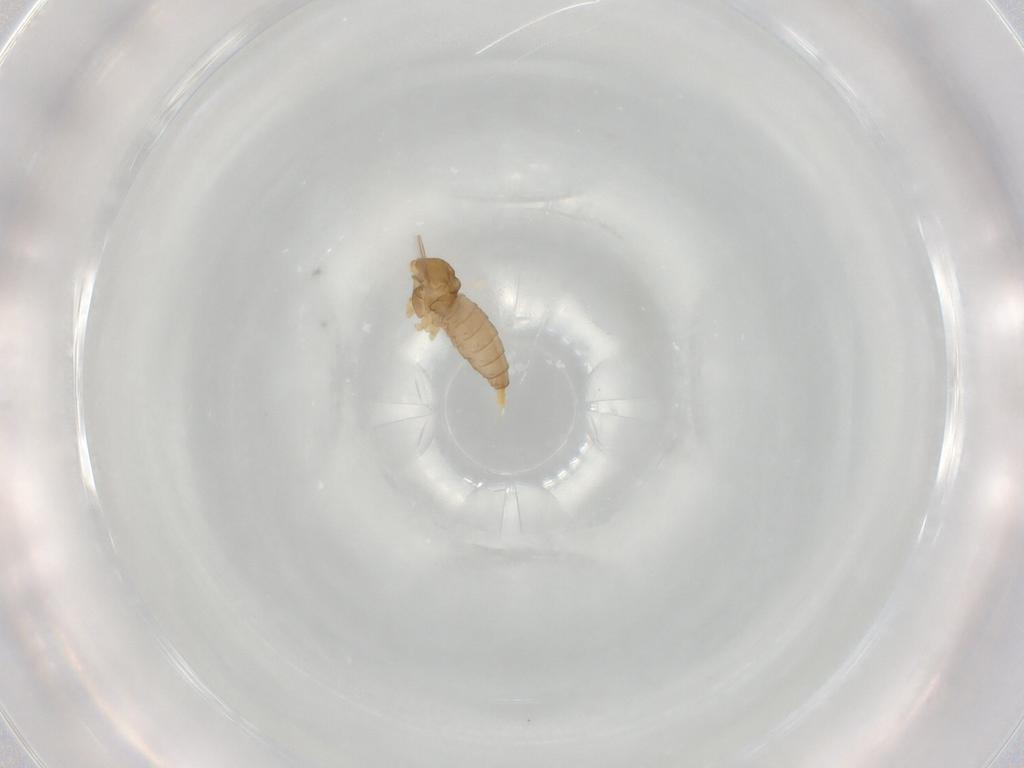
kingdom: Animalia
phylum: Arthropoda
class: Insecta
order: Diptera
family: Cecidomyiidae
